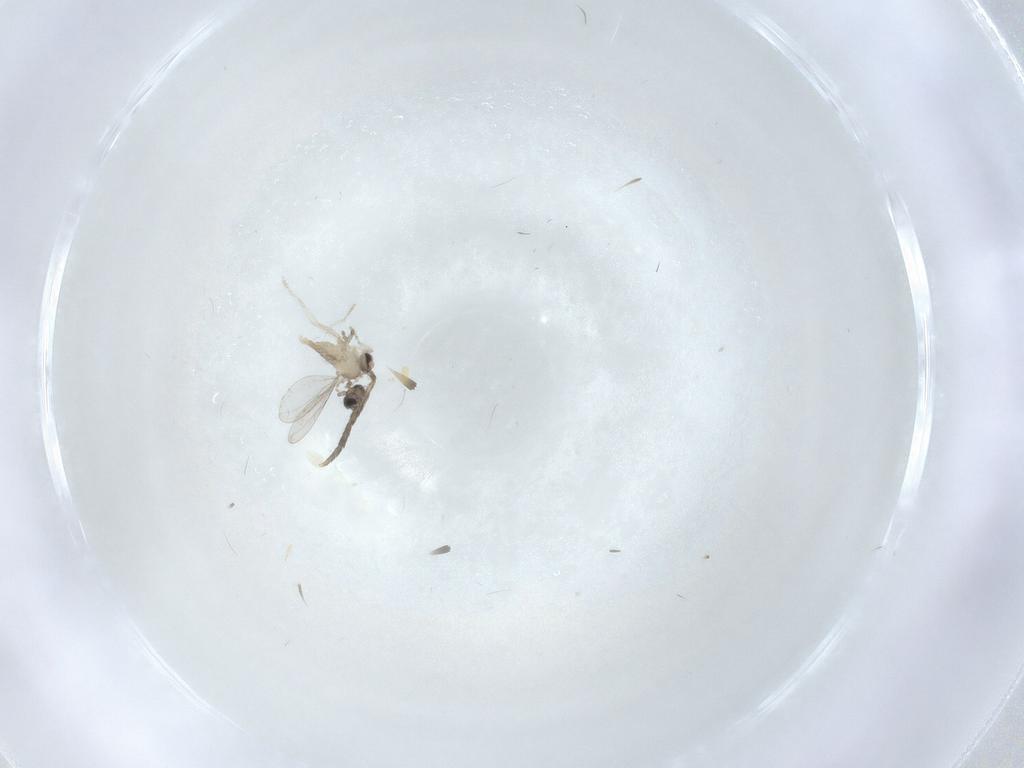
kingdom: Animalia
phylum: Arthropoda
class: Insecta
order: Diptera
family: Cecidomyiidae
